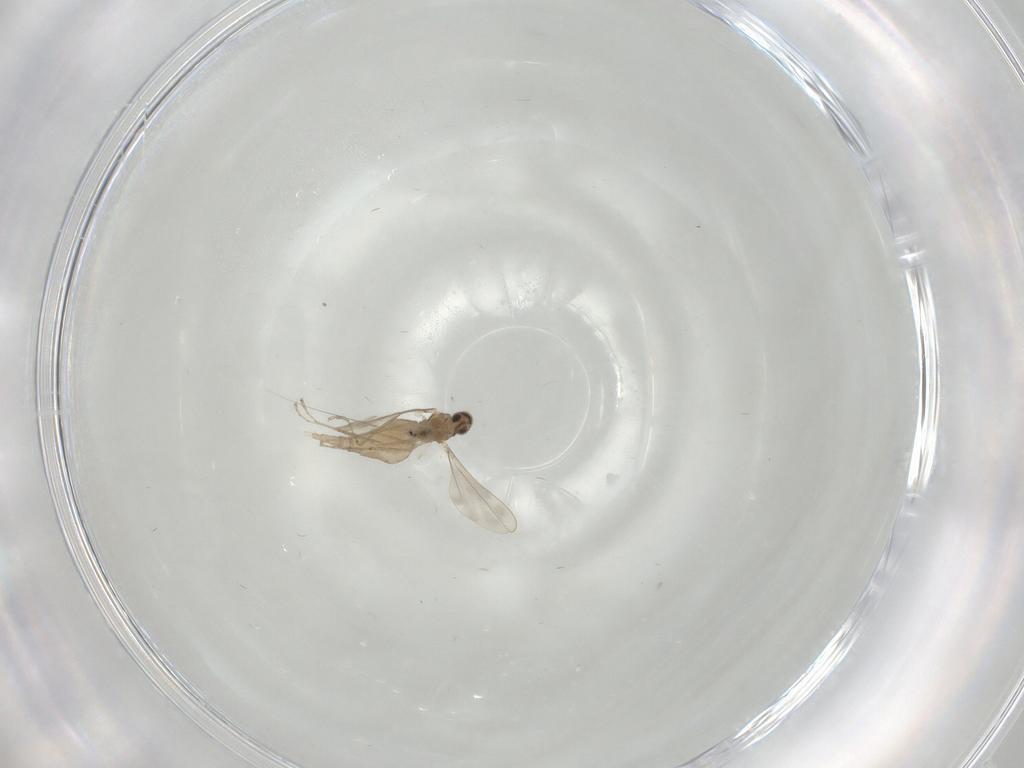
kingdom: Animalia
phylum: Arthropoda
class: Insecta
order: Diptera
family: Cecidomyiidae
